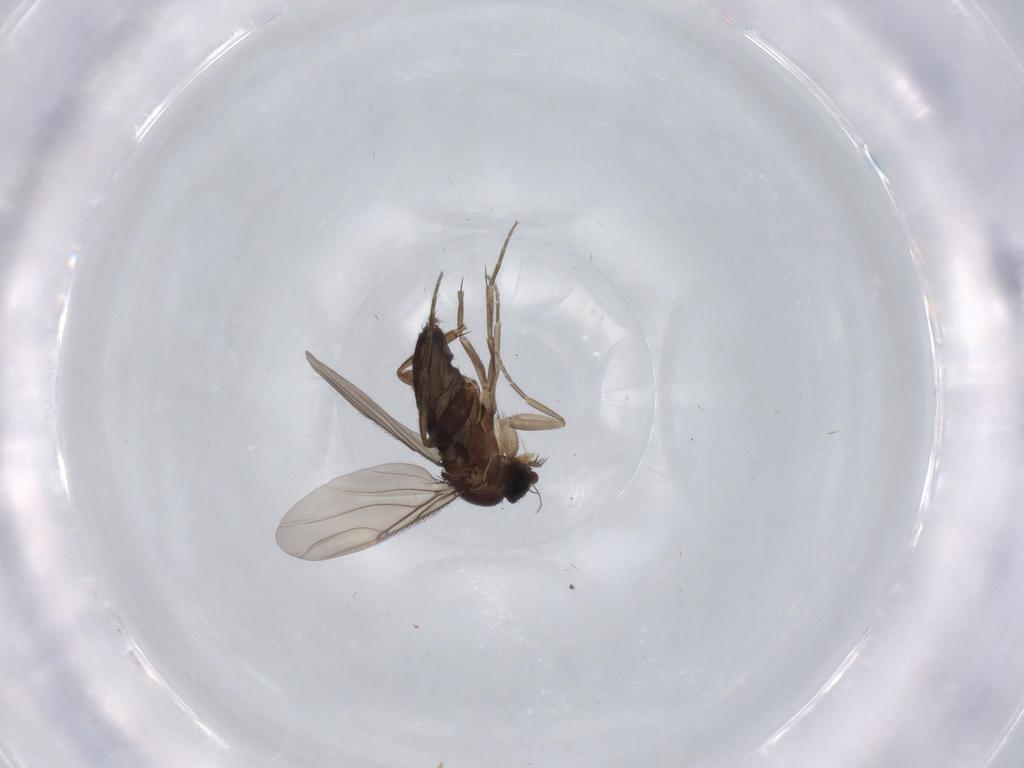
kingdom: Animalia
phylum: Arthropoda
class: Insecta
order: Diptera
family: Phoridae
